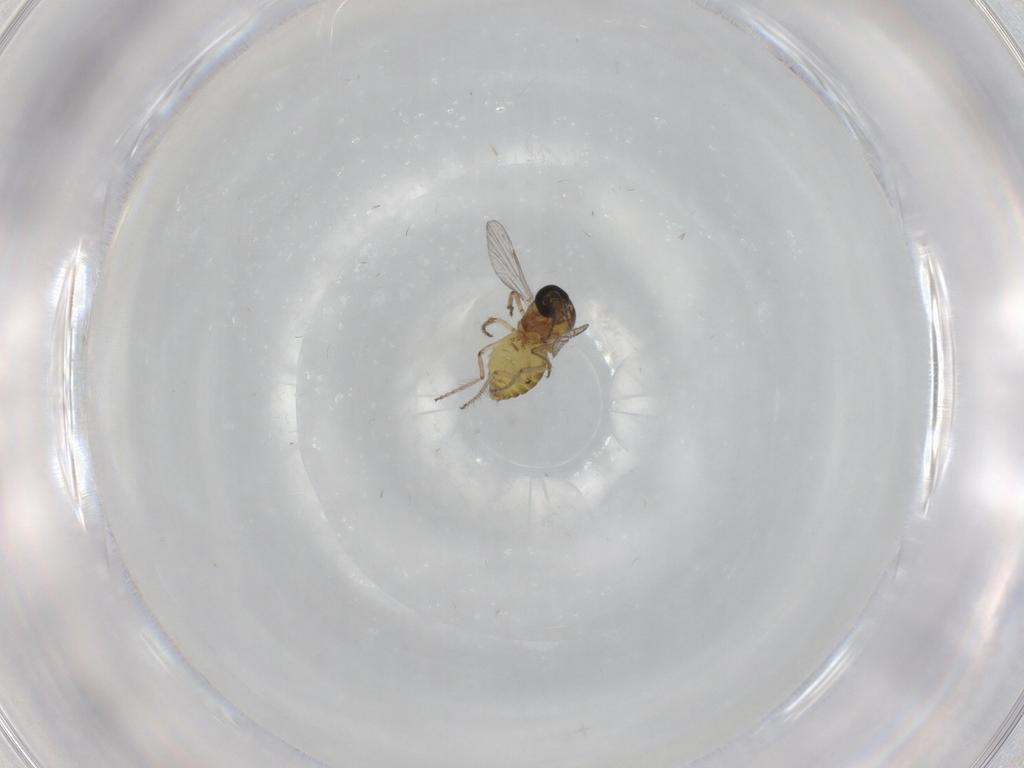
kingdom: Animalia
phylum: Arthropoda
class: Insecta
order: Diptera
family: Ceratopogonidae
